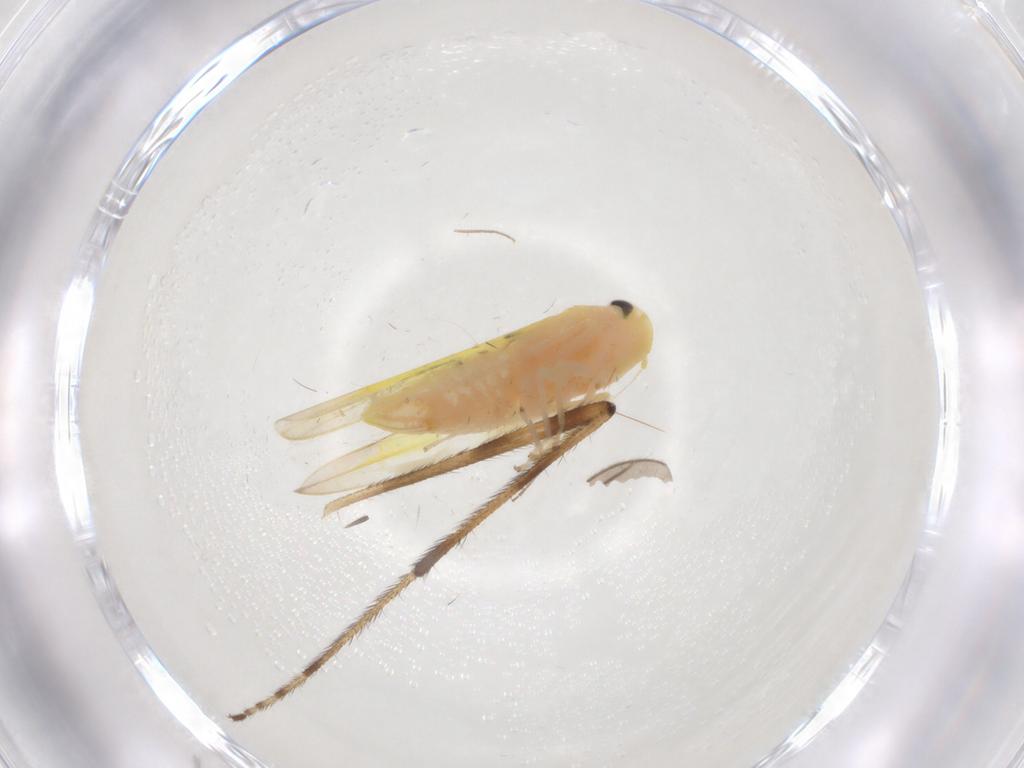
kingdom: Animalia
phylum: Arthropoda
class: Insecta
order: Hemiptera
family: Cicadellidae
